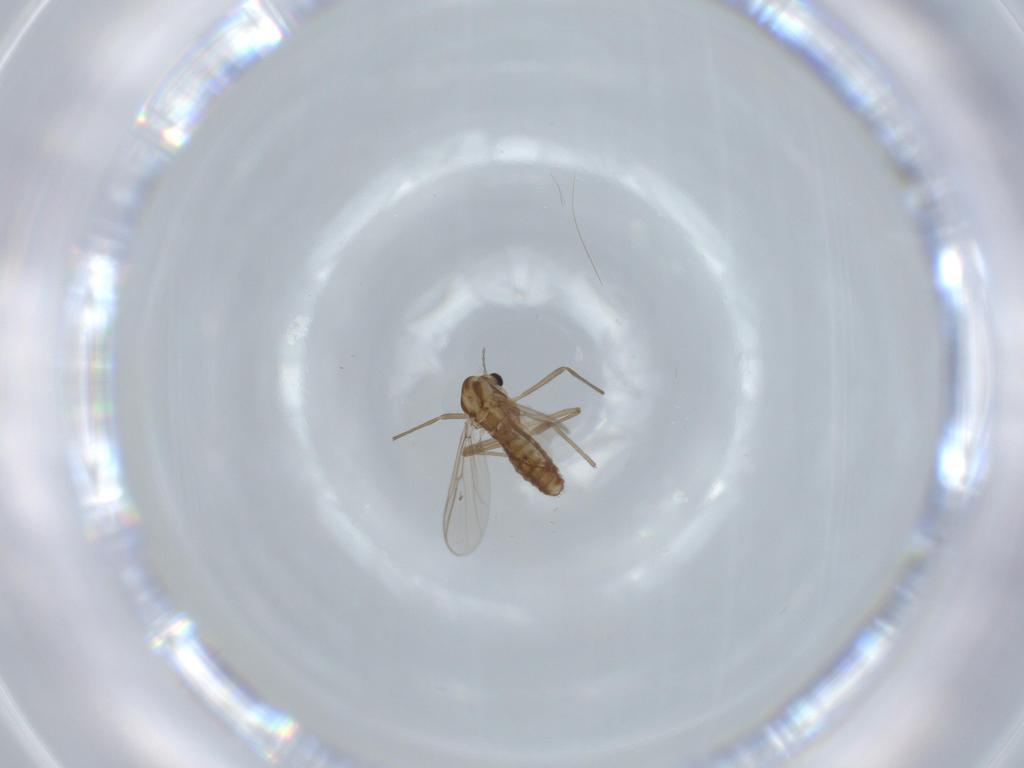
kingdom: Animalia
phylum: Arthropoda
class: Insecta
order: Diptera
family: Chironomidae
